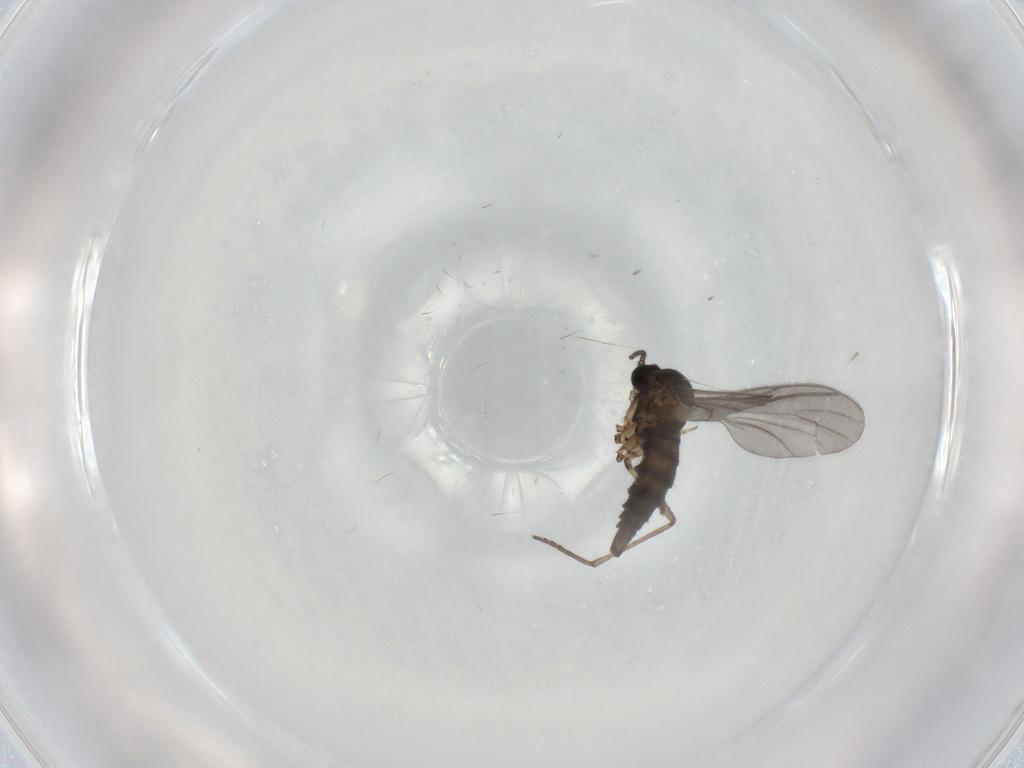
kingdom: Animalia
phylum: Arthropoda
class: Insecta
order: Diptera
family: Sciaridae
